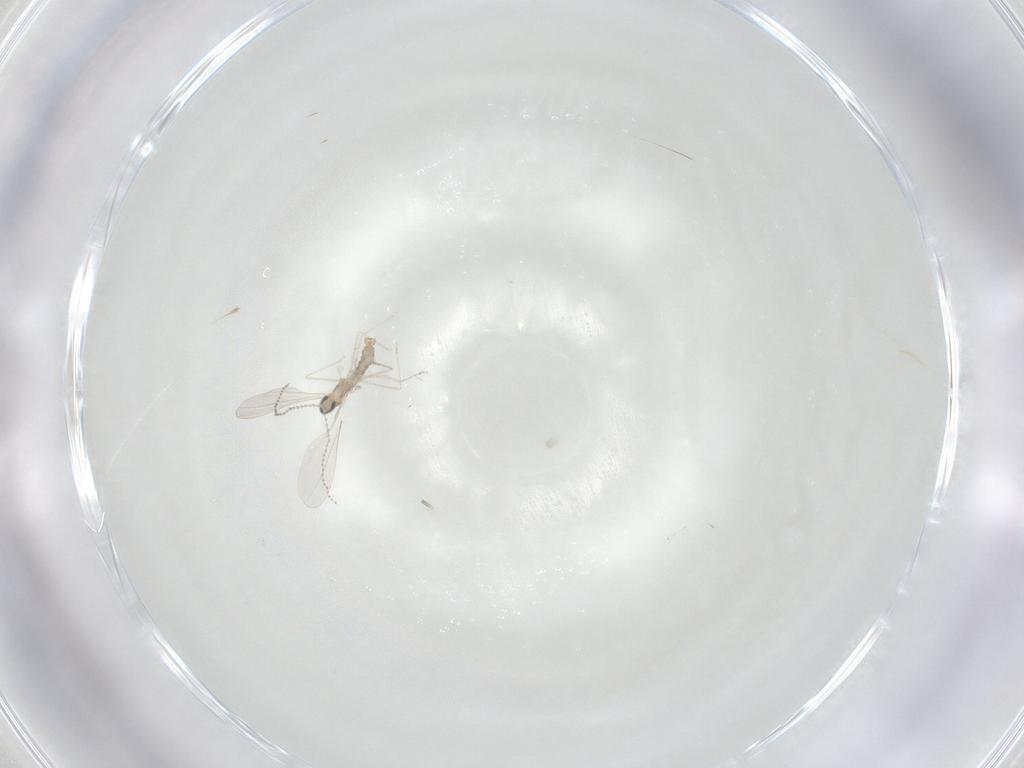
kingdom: Animalia
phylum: Arthropoda
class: Insecta
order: Diptera
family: Cecidomyiidae
